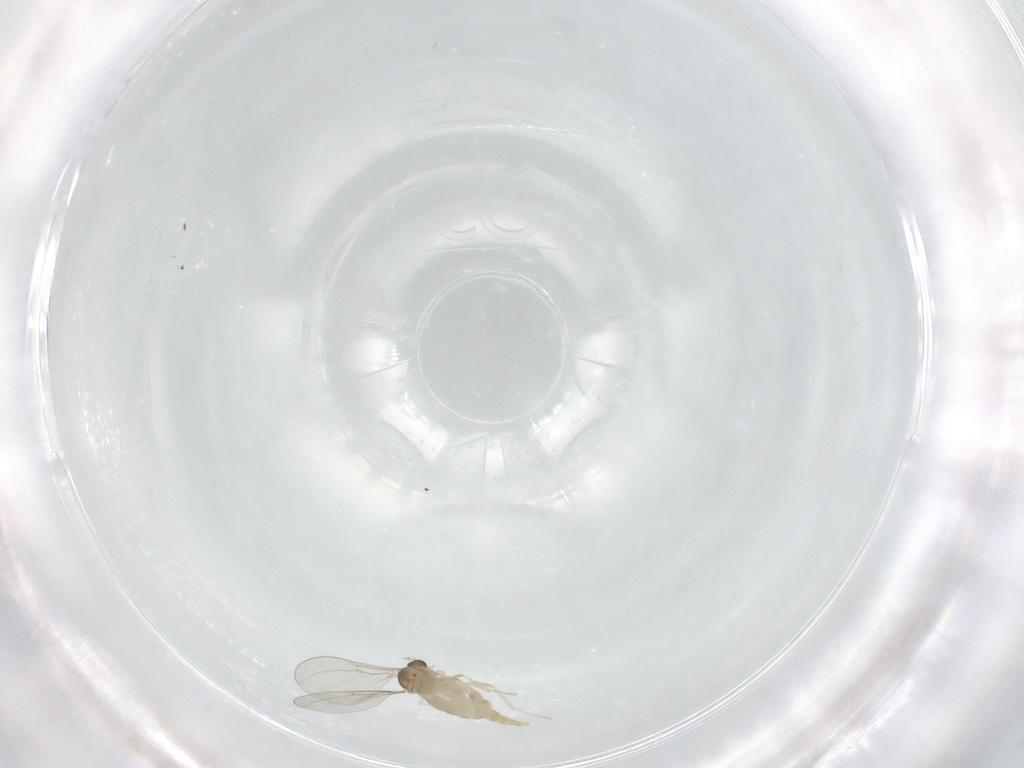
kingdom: Animalia
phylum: Arthropoda
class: Insecta
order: Diptera
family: Cecidomyiidae
